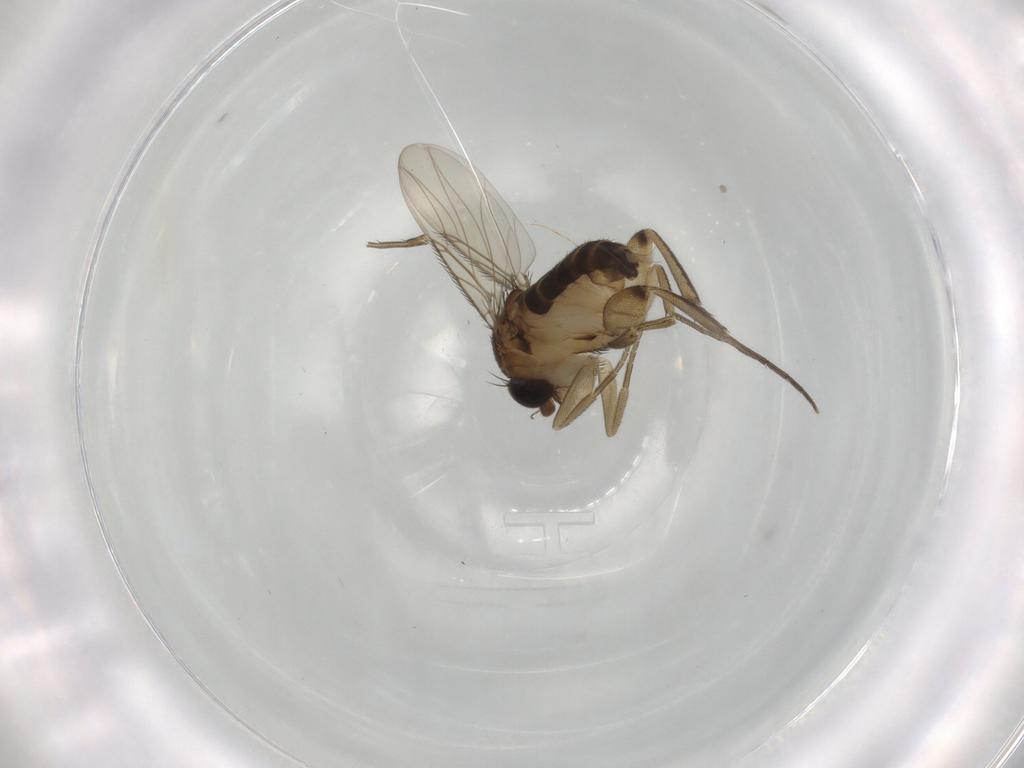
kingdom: Animalia
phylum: Arthropoda
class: Insecta
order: Diptera
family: Phoridae
